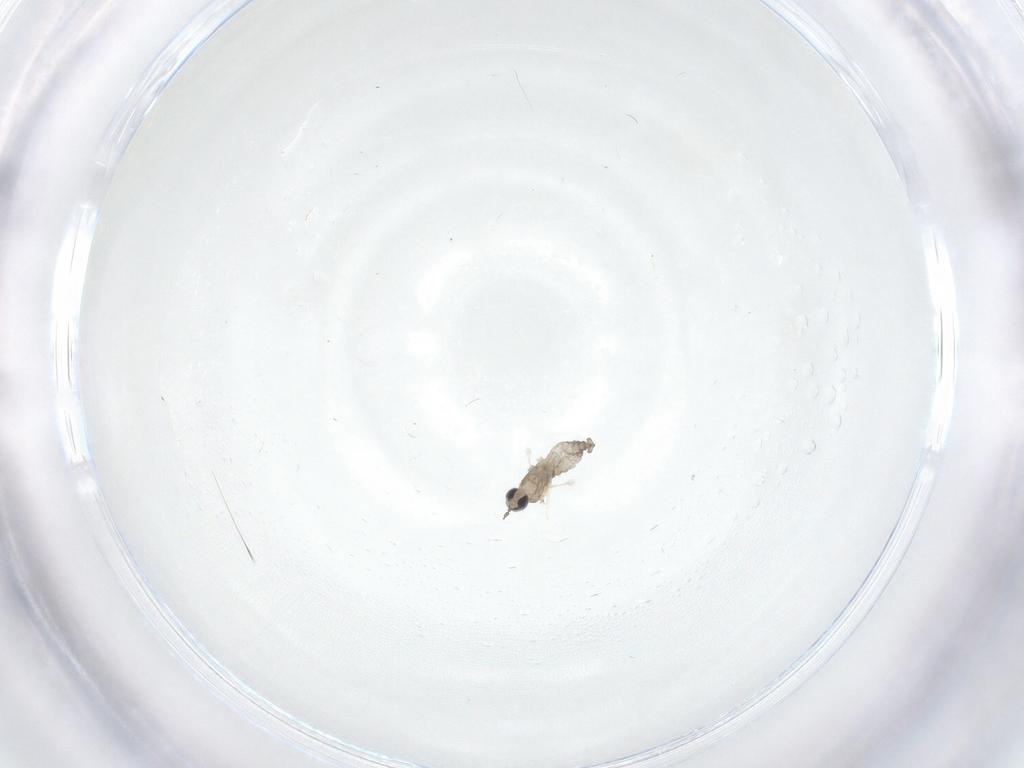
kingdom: Animalia
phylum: Arthropoda
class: Insecta
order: Diptera
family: Cecidomyiidae
